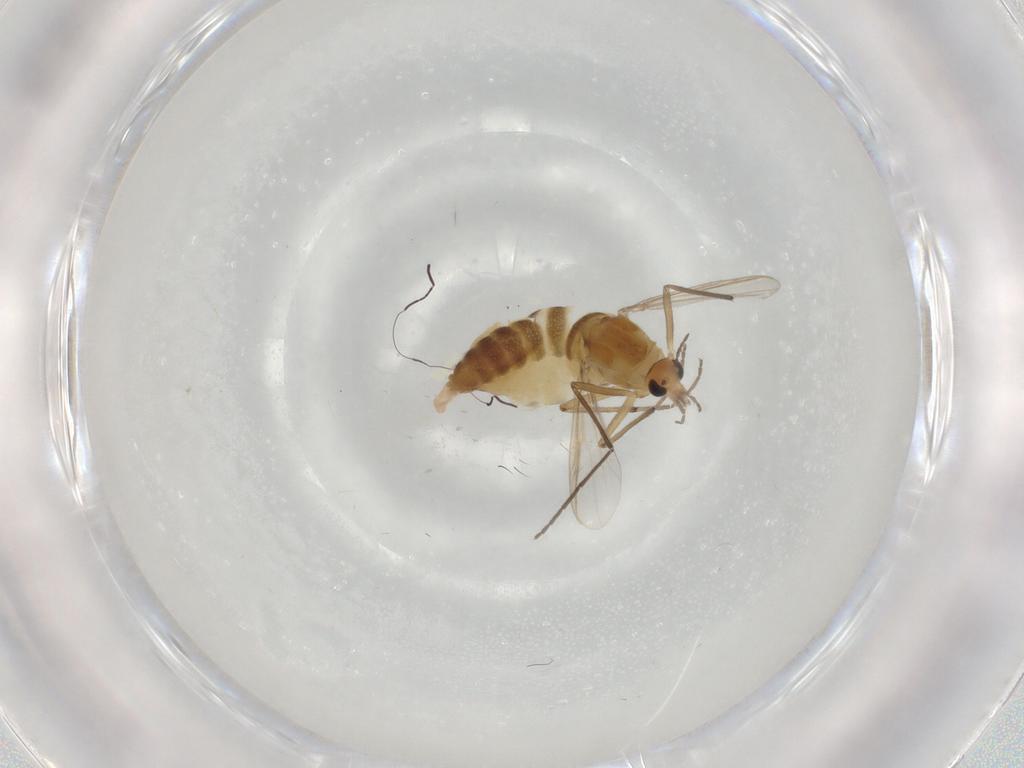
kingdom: Animalia
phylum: Arthropoda
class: Insecta
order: Diptera
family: Chironomidae
